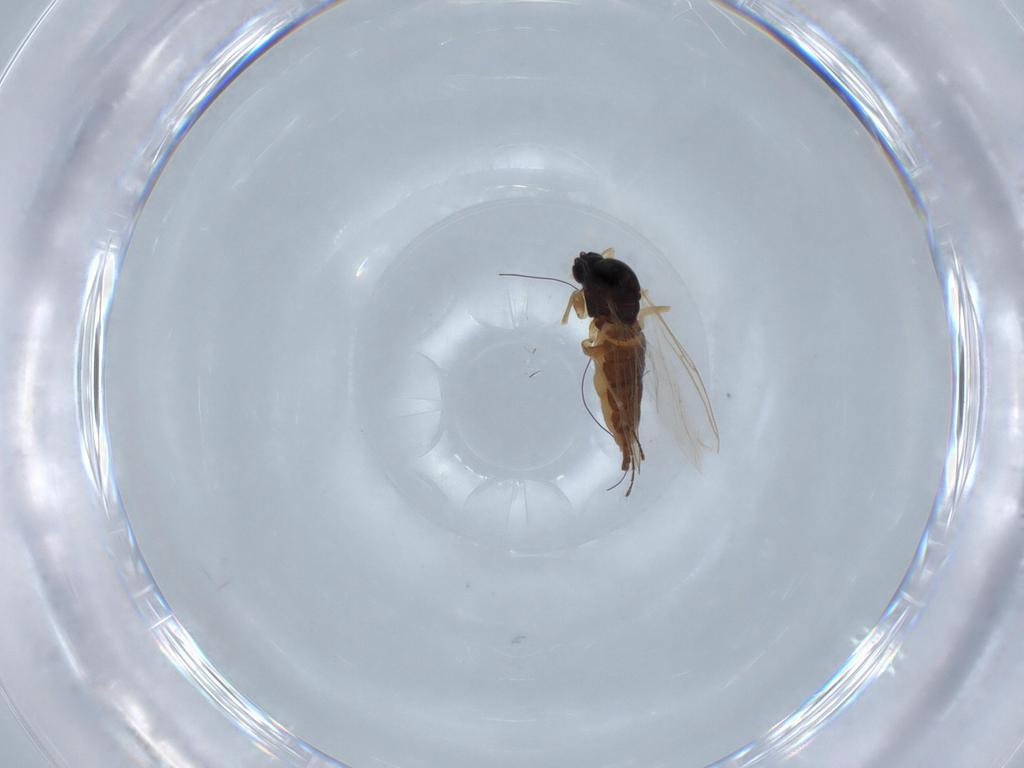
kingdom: Animalia
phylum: Arthropoda
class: Insecta
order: Diptera
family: Sciaridae
